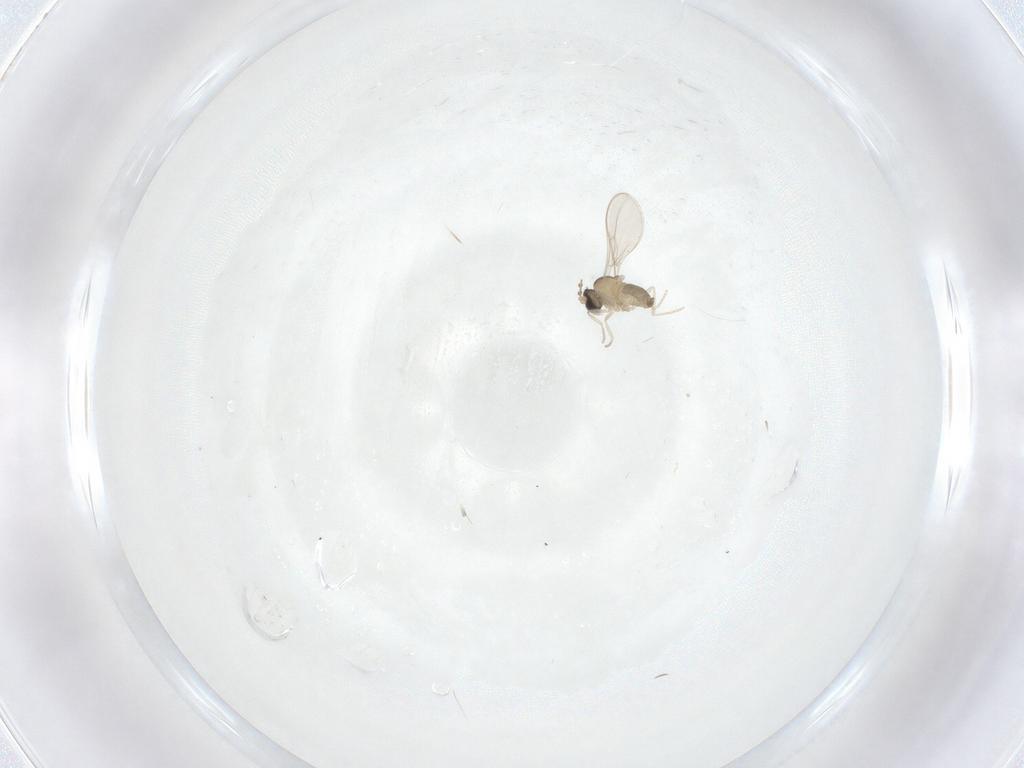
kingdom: Animalia
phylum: Arthropoda
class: Insecta
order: Diptera
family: Cecidomyiidae
